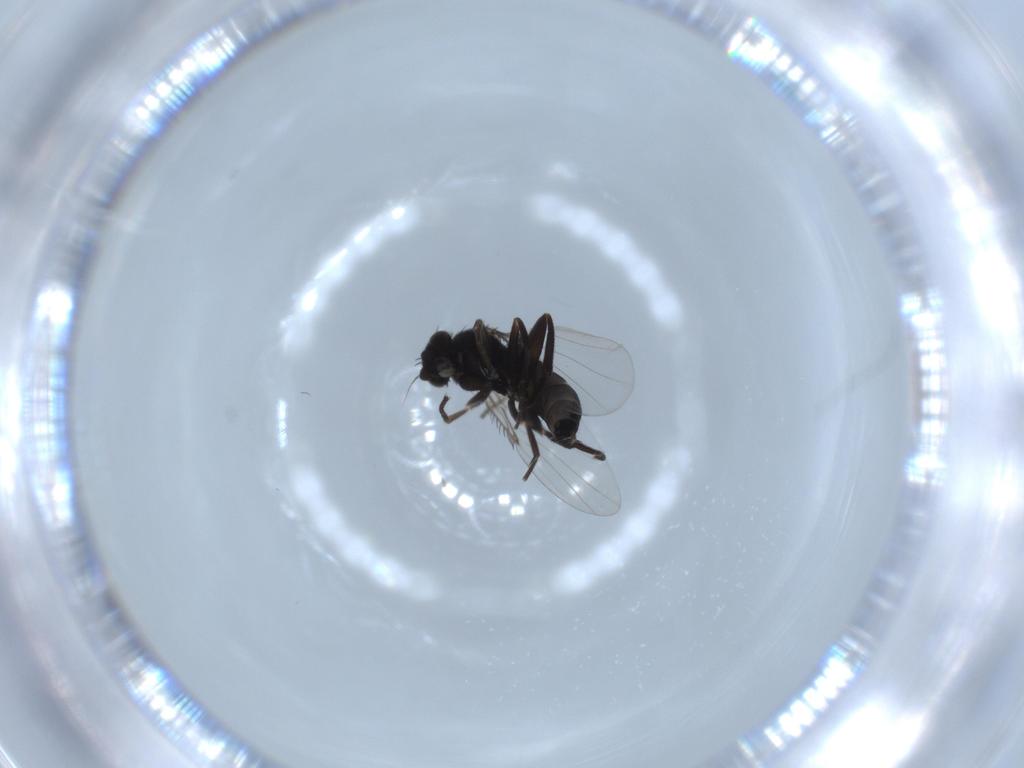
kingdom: Animalia
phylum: Arthropoda
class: Insecta
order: Diptera
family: Phoridae
